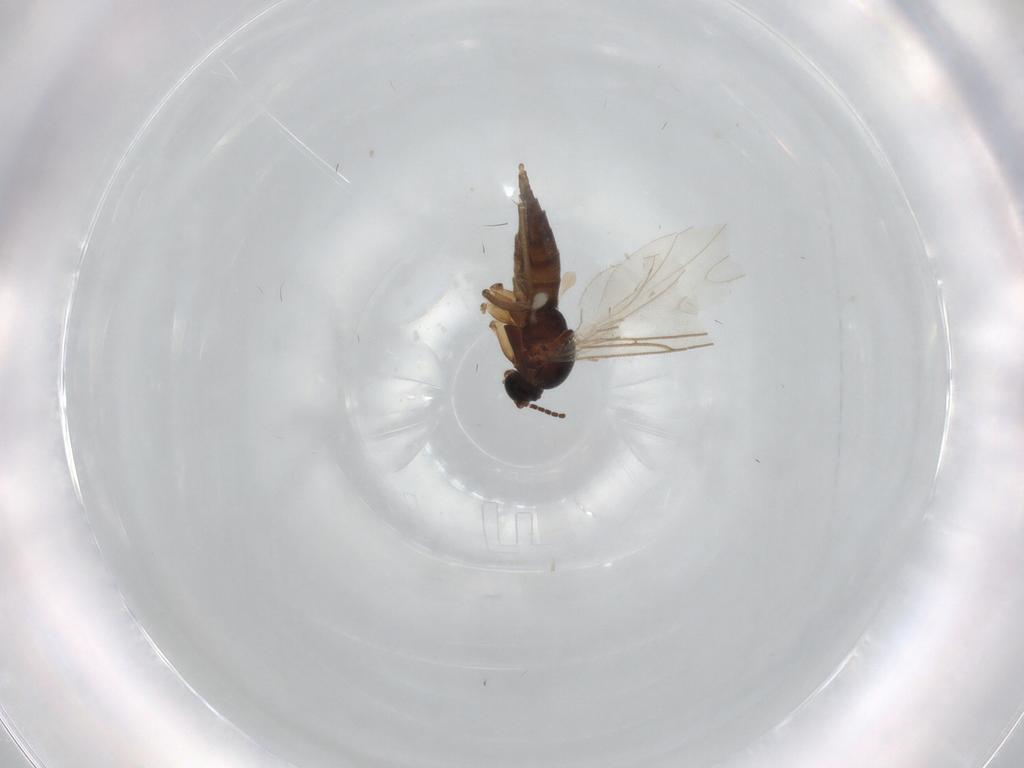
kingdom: Animalia
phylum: Arthropoda
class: Insecta
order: Diptera
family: Sciaridae
